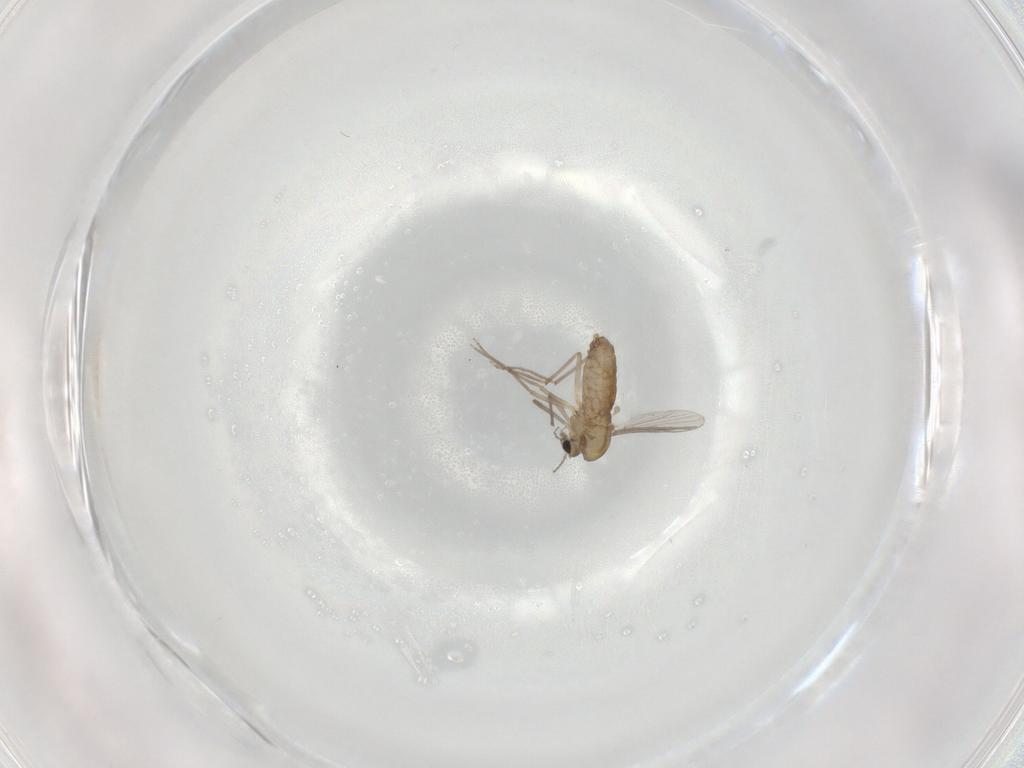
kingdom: Animalia
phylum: Arthropoda
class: Insecta
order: Diptera
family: Chironomidae
